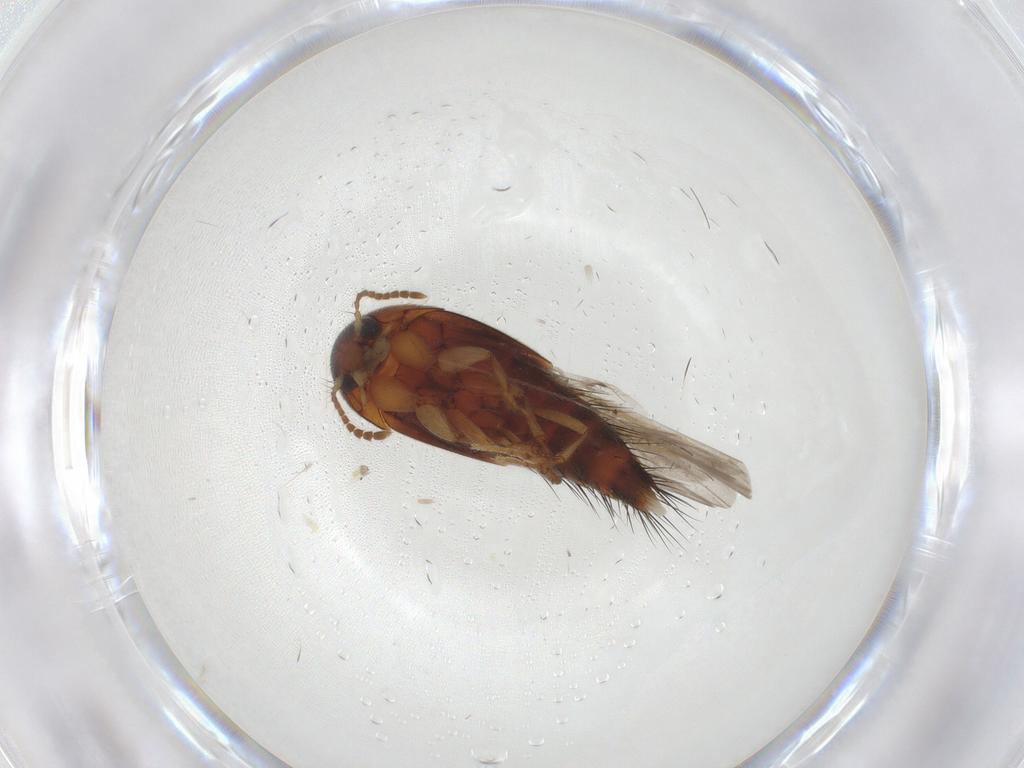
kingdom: Animalia
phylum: Arthropoda
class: Insecta
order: Coleoptera
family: Staphylinidae
